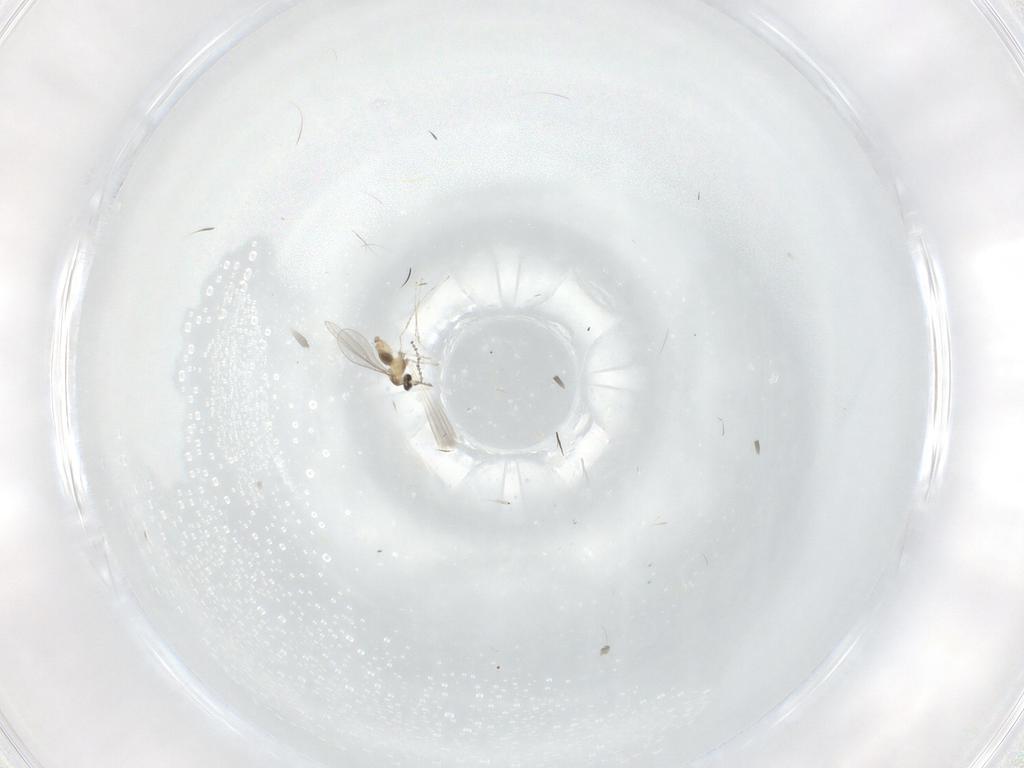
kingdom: Animalia
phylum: Arthropoda
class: Insecta
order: Diptera
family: Cecidomyiidae
